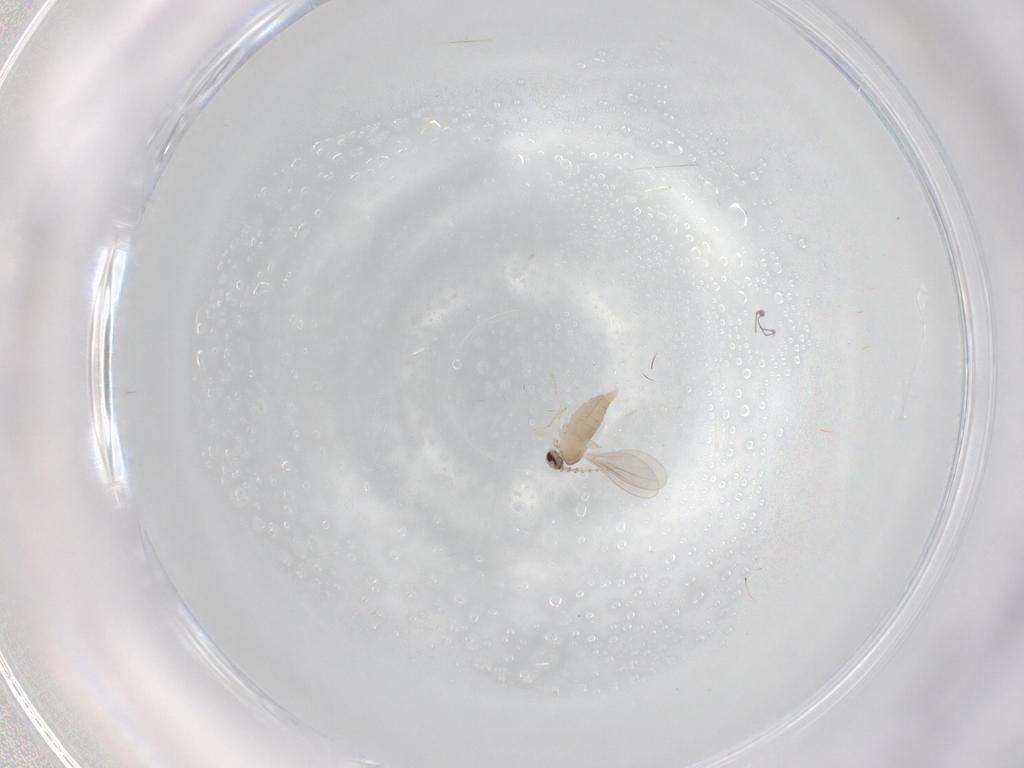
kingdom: Animalia
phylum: Arthropoda
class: Insecta
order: Diptera
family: Cecidomyiidae
